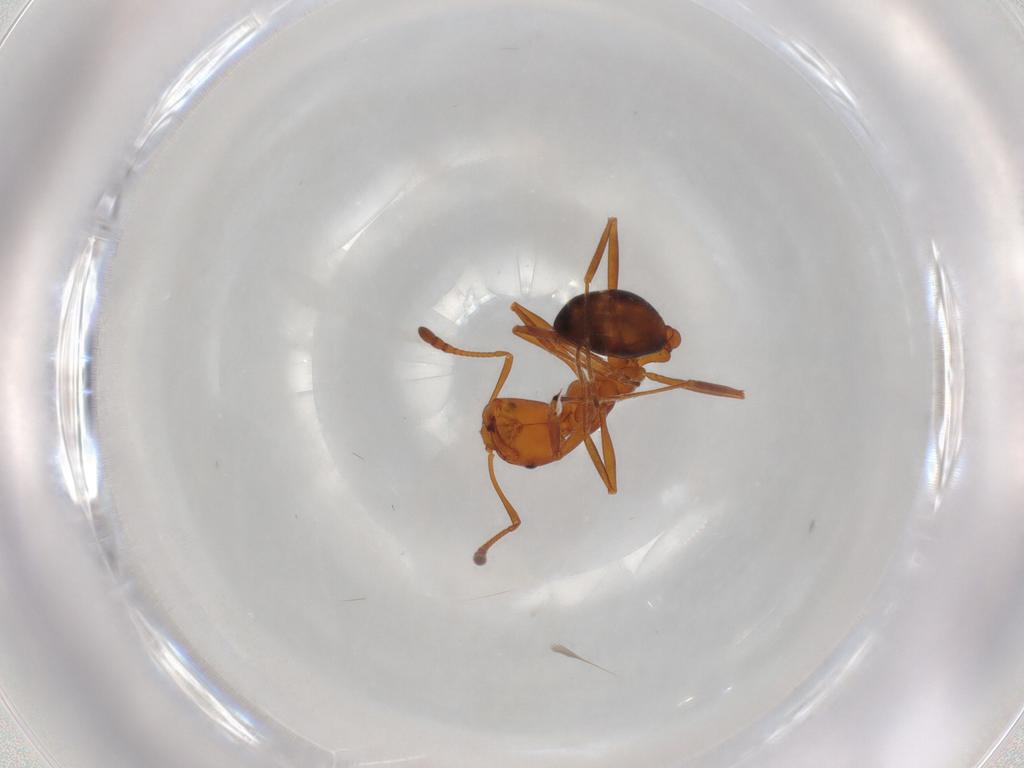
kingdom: Animalia
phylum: Arthropoda
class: Insecta
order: Hymenoptera
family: Formicidae
